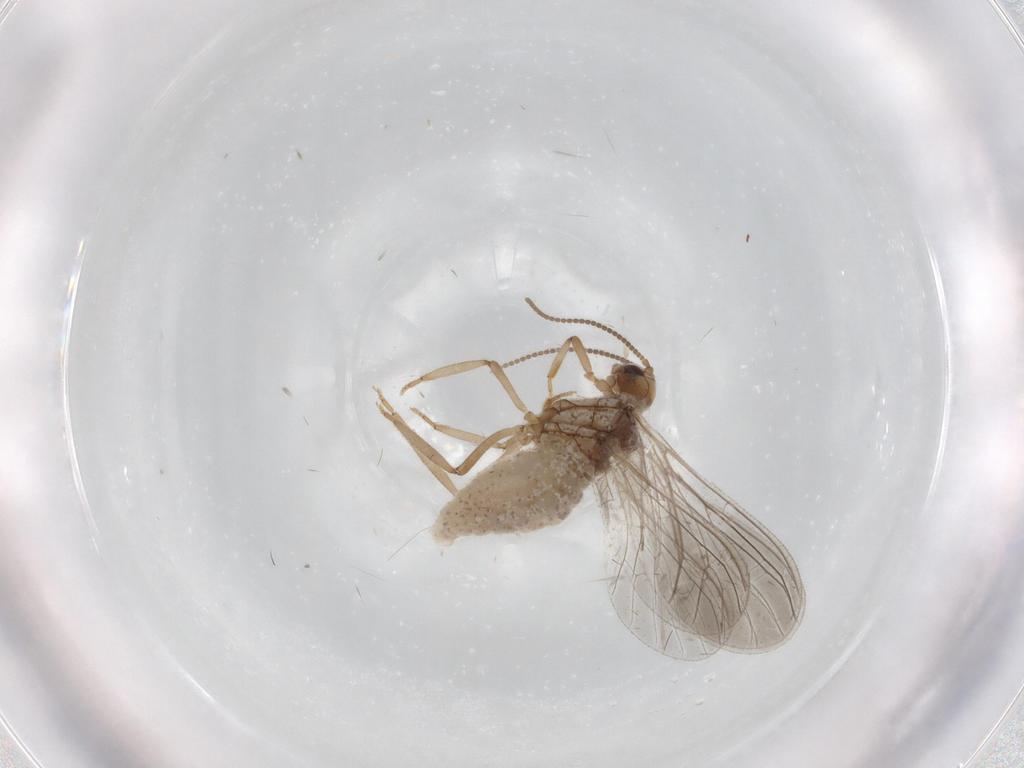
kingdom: Animalia
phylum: Arthropoda
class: Insecta
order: Neuroptera
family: Coniopterygidae
